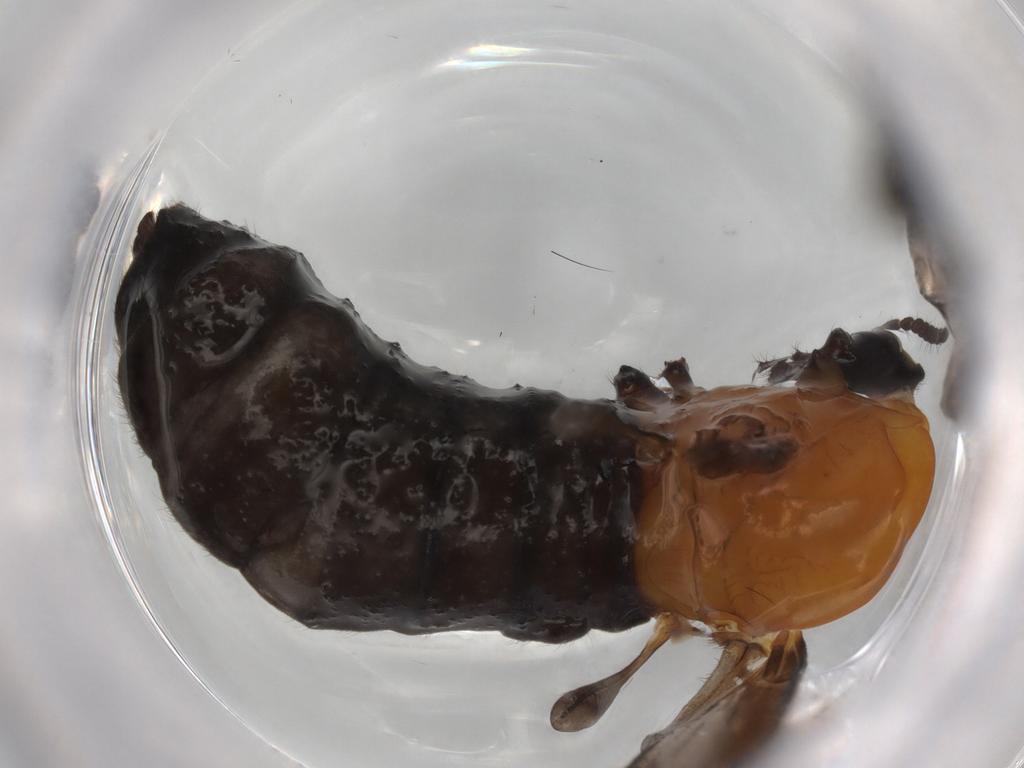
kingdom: Animalia
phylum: Arthropoda
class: Insecta
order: Diptera
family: Bibionidae
